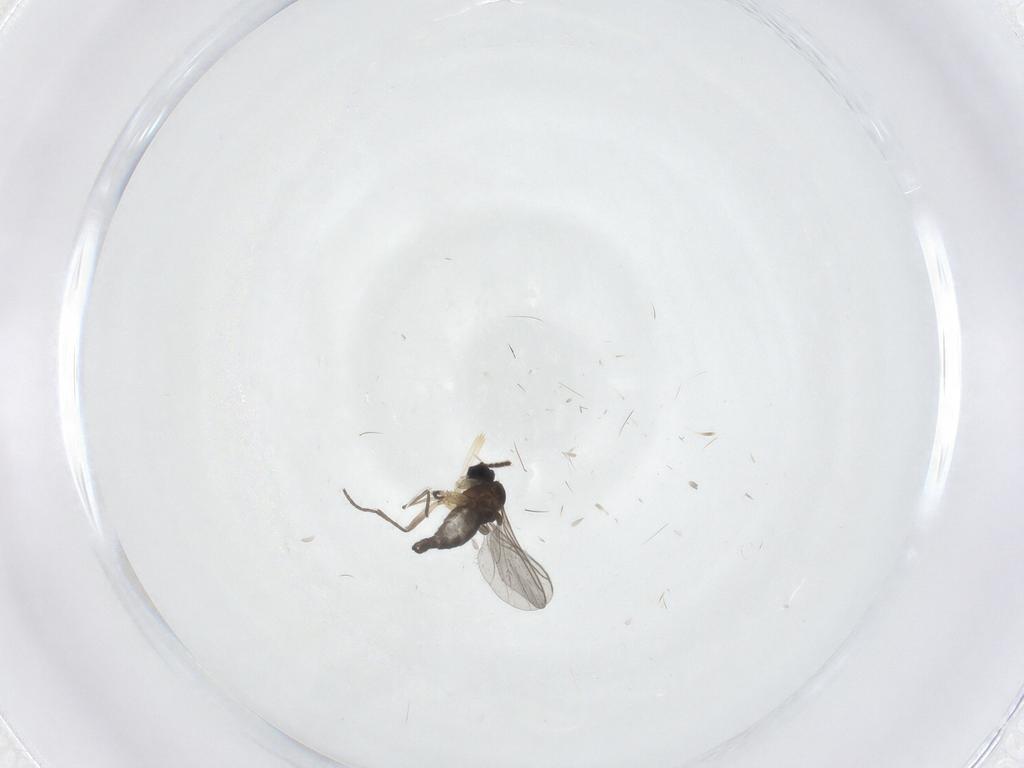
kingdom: Animalia
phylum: Arthropoda
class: Insecta
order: Diptera
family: Sciaridae
